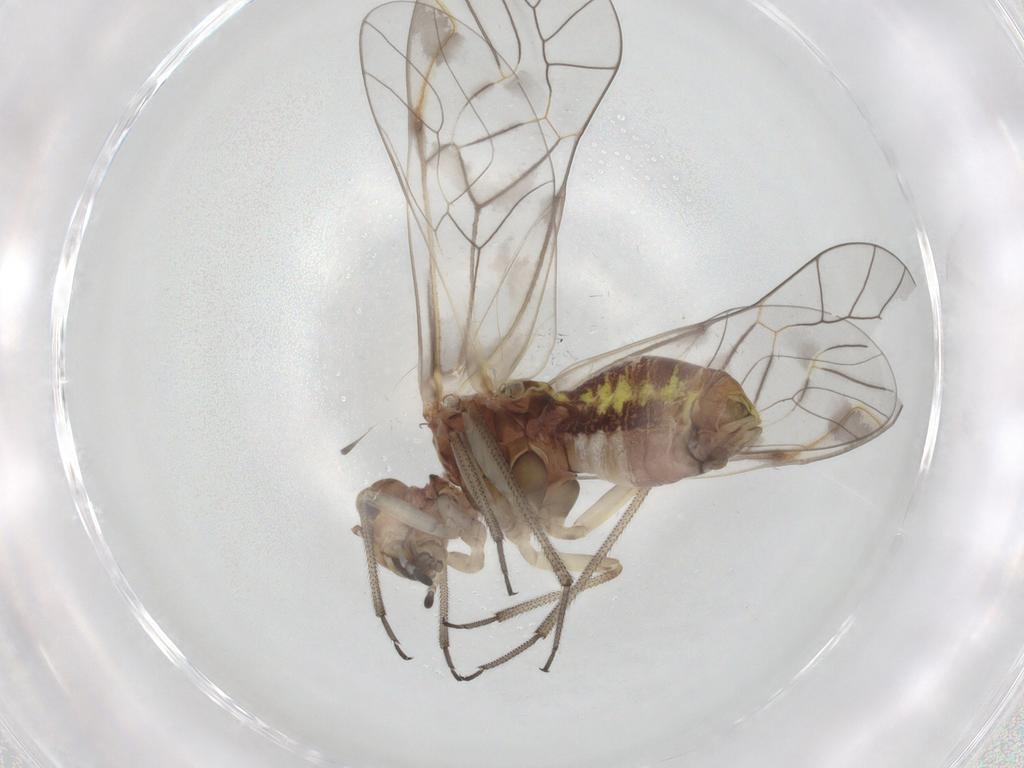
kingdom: Animalia
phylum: Arthropoda
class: Insecta
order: Psocodea
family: Archipsocidae
